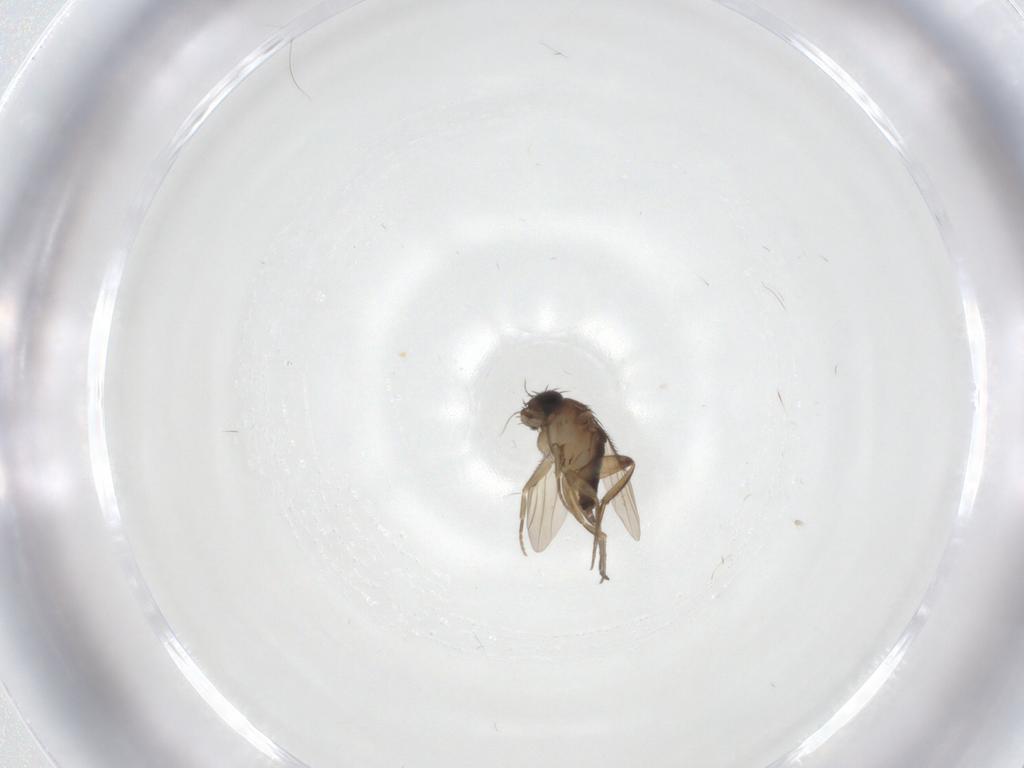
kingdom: Animalia
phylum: Arthropoda
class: Insecta
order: Diptera
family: Phoridae
